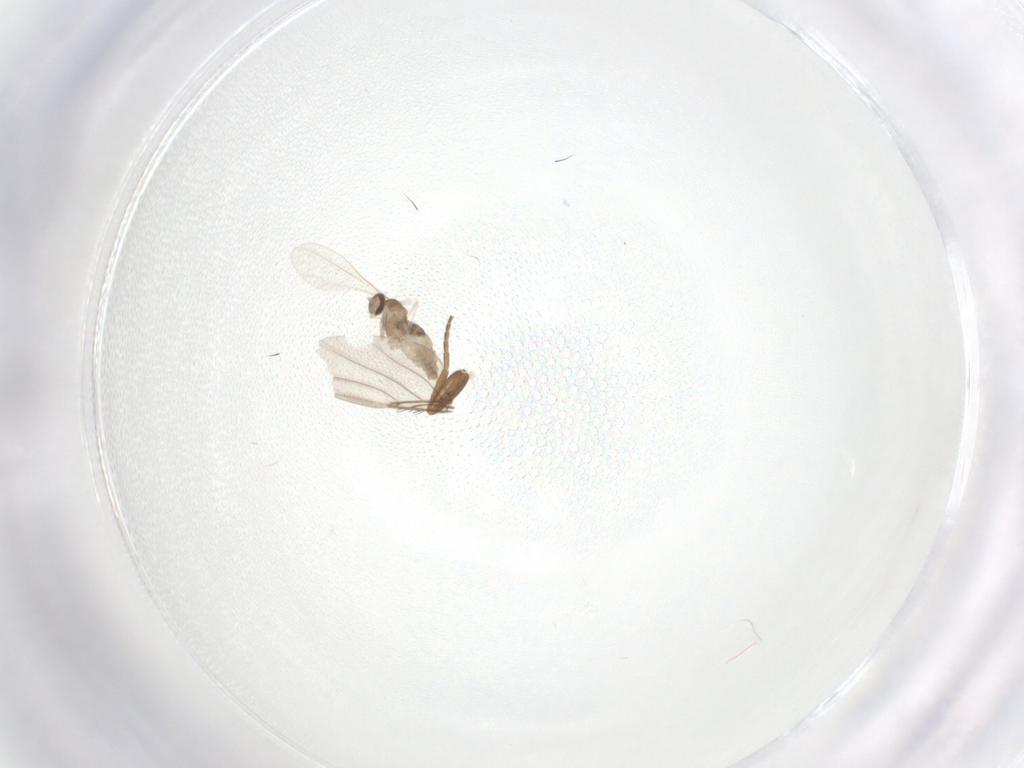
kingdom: Animalia
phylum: Arthropoda
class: Insecta
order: Diptera
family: Cecidomyiidae
